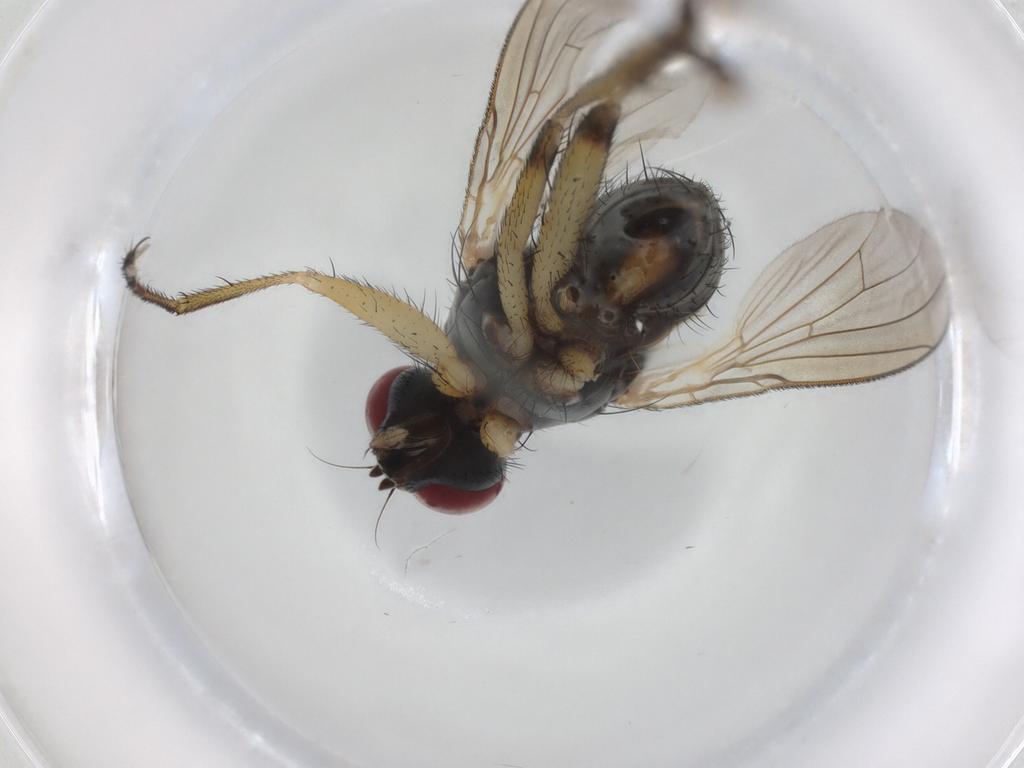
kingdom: Animalia
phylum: Arthropoda
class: Insecta
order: Diptera
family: Muscidae
